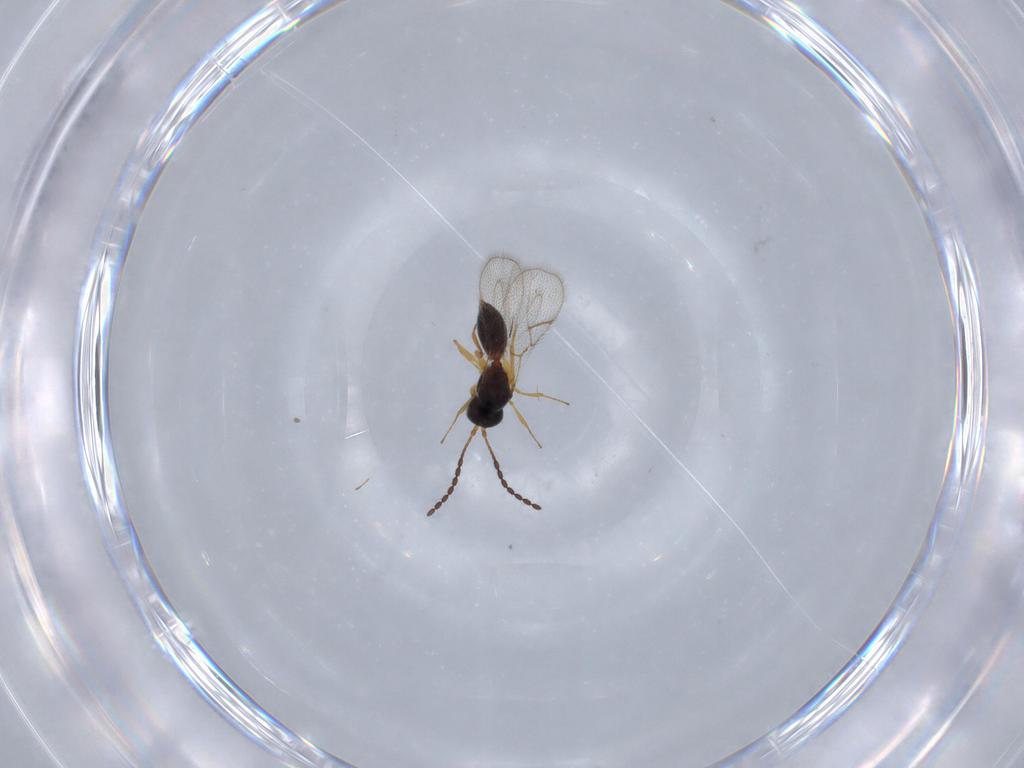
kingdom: Animalia
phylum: Arthropoda
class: Insecta
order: Hymenoptera
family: Figitidae
